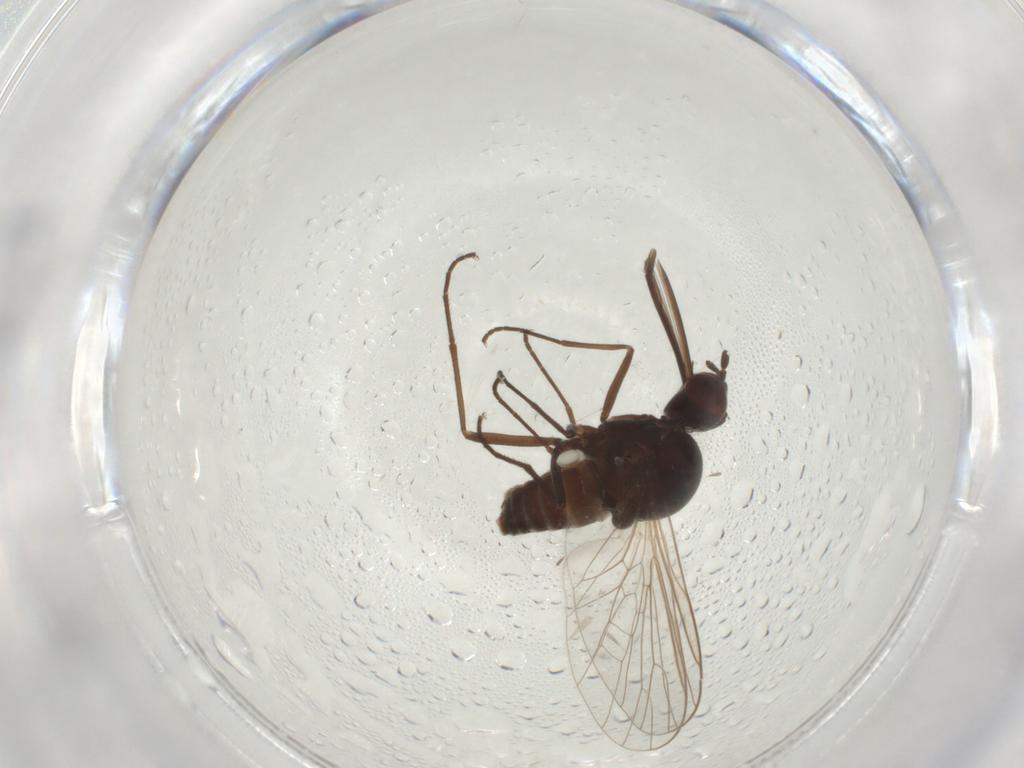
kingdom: Animalia
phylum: Arthropoda
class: Insecta
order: Diptera
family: Bombyliidae
